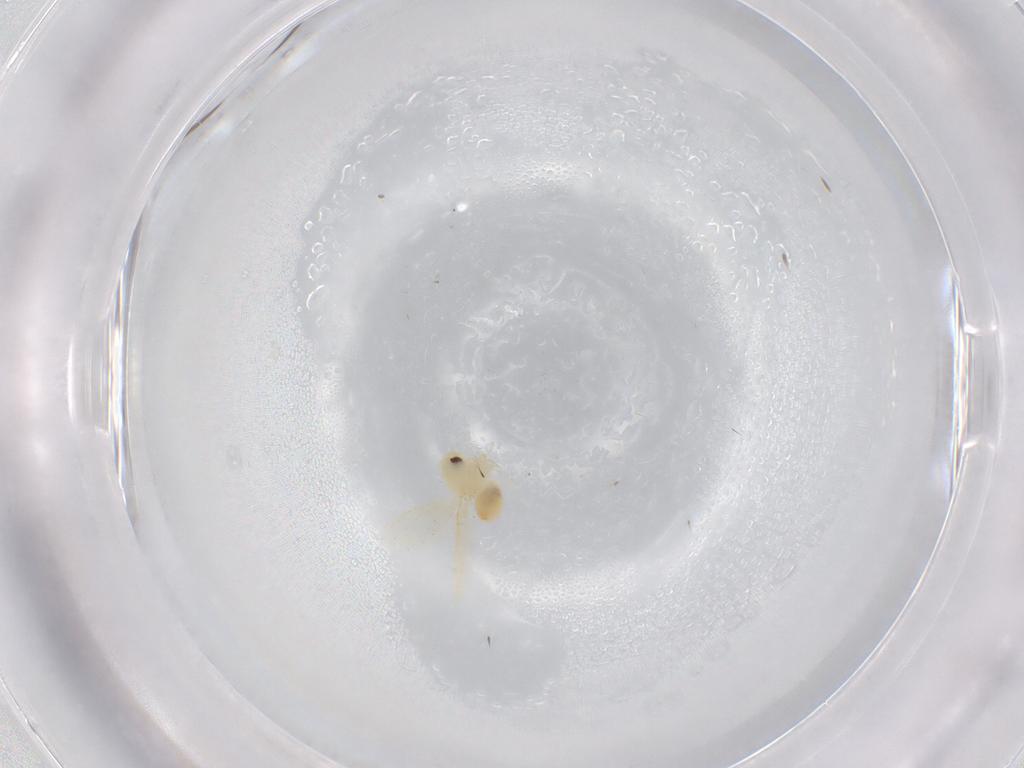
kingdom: Animalia
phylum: Arthropoda
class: Insecta
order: Hemiptera
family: Aleyrodidae
